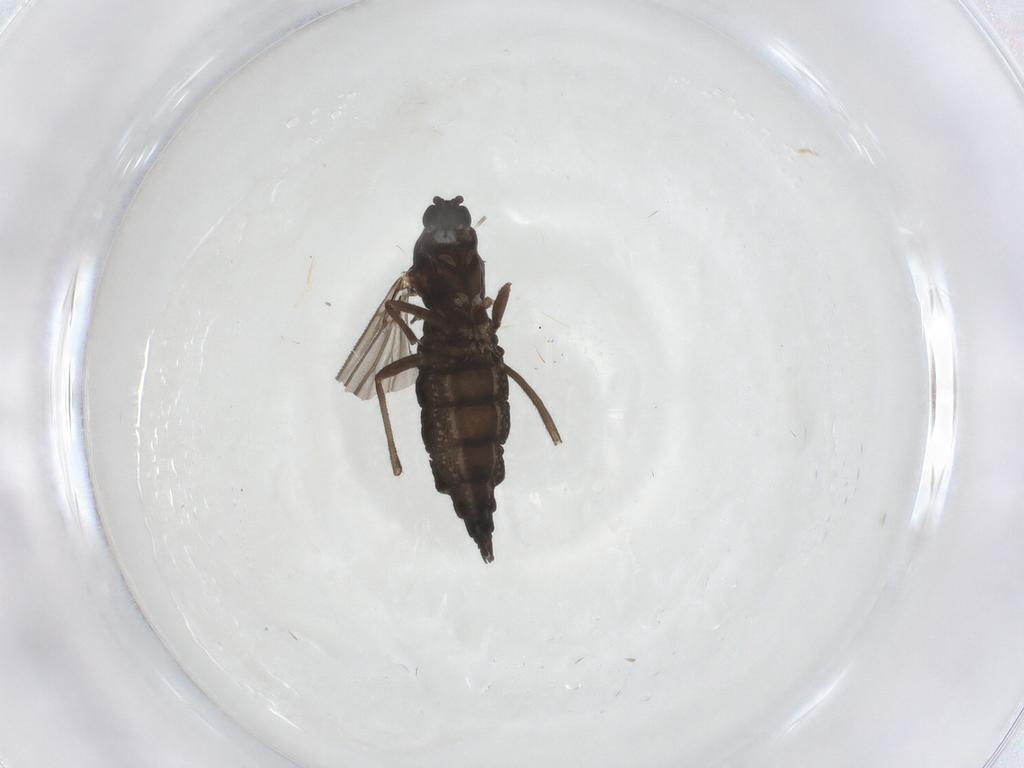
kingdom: Animalia
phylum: Arthropoda
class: Insecta
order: Diptera
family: Sciaridae
